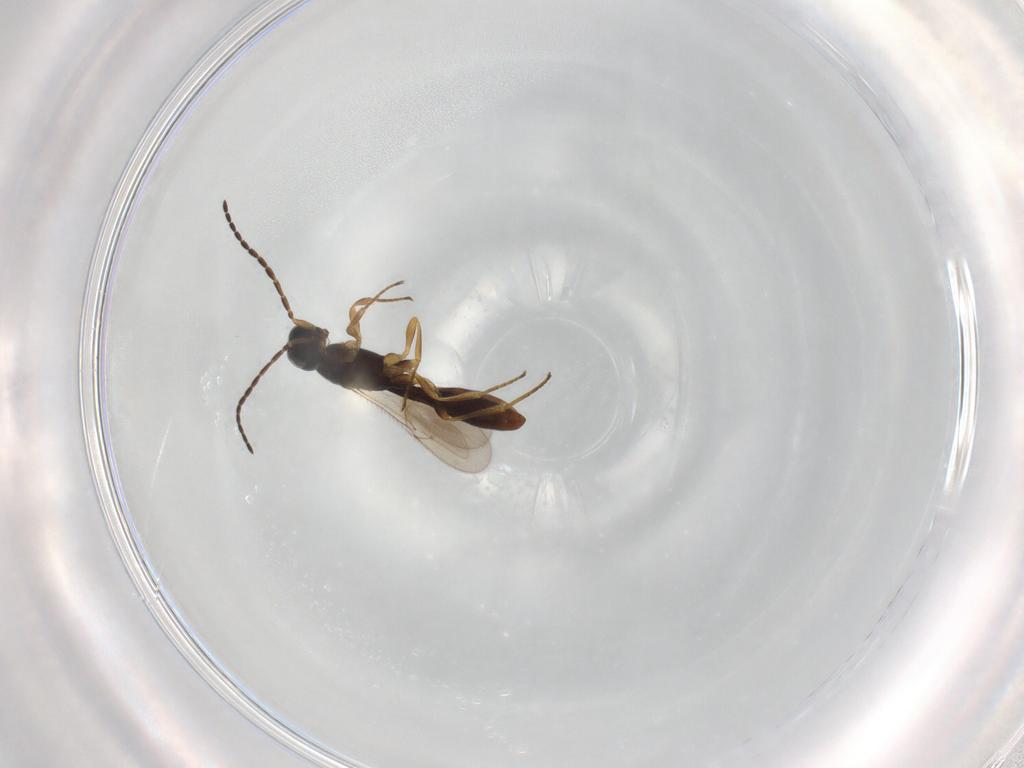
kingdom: Animalia
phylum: Arthropoda
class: Insecta
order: Hymenoptera
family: Scelionidae
